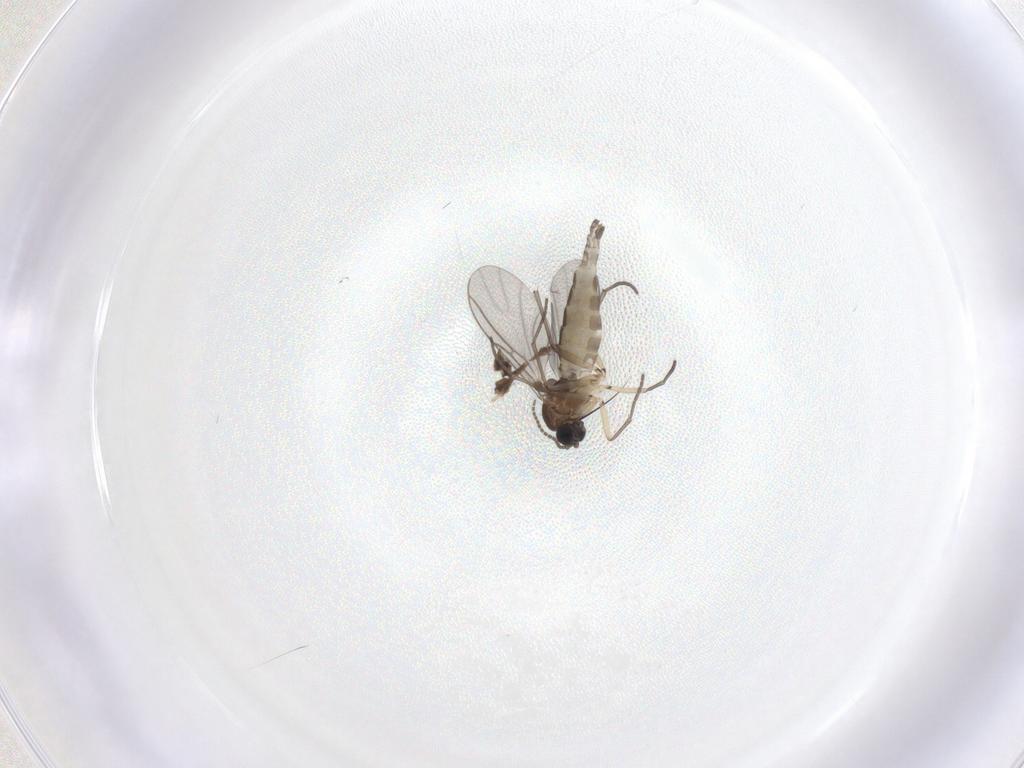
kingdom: Animalia
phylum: Arthropoda
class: Insecta
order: Diptera
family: Sciaridae
